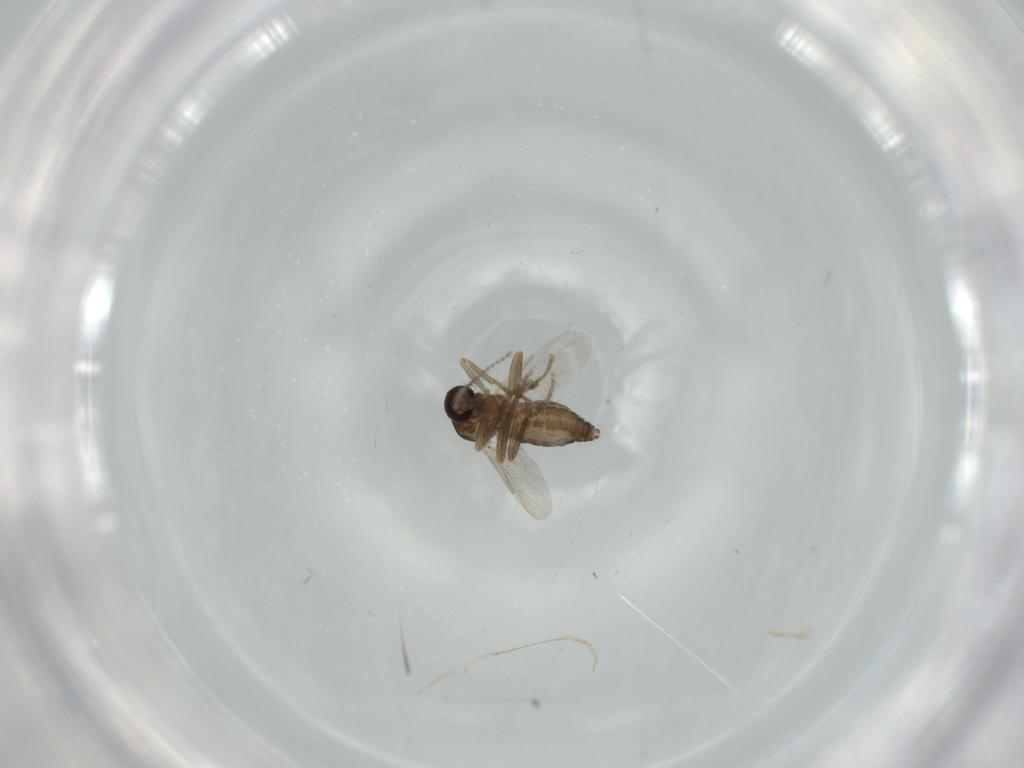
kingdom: Animalia
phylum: Arthropoda
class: Insecta
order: Diptera
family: Ceratopogonidae
